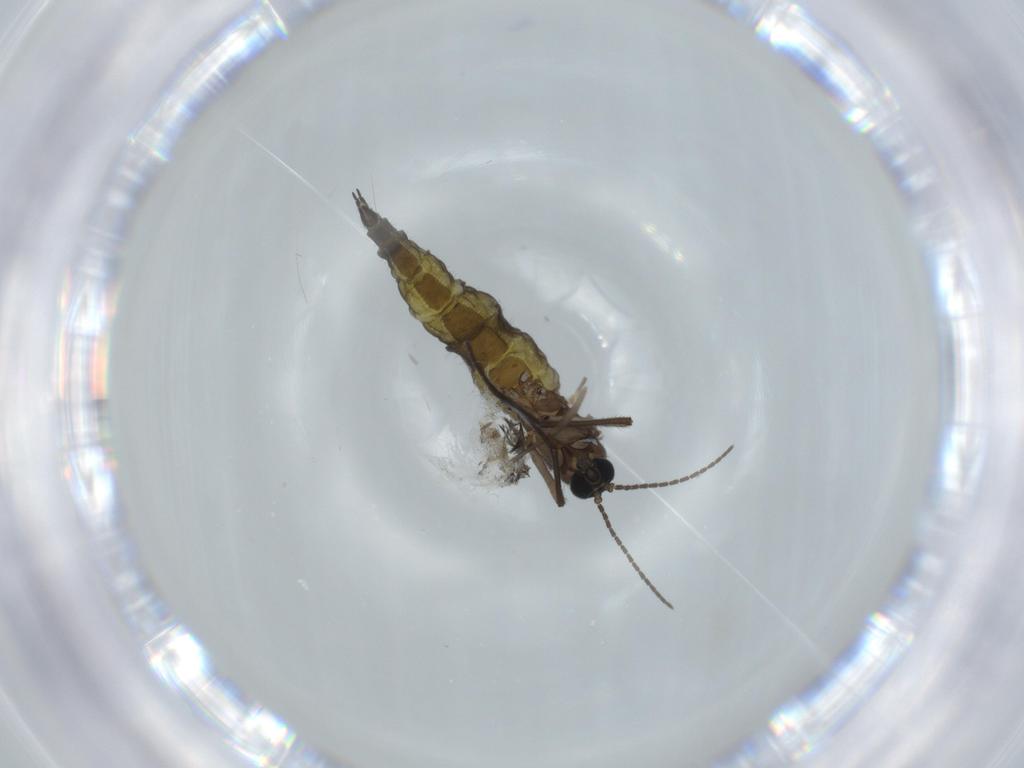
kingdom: Animalia
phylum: Arthropoda
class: Insecta
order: Diptera
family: Sciaridae
